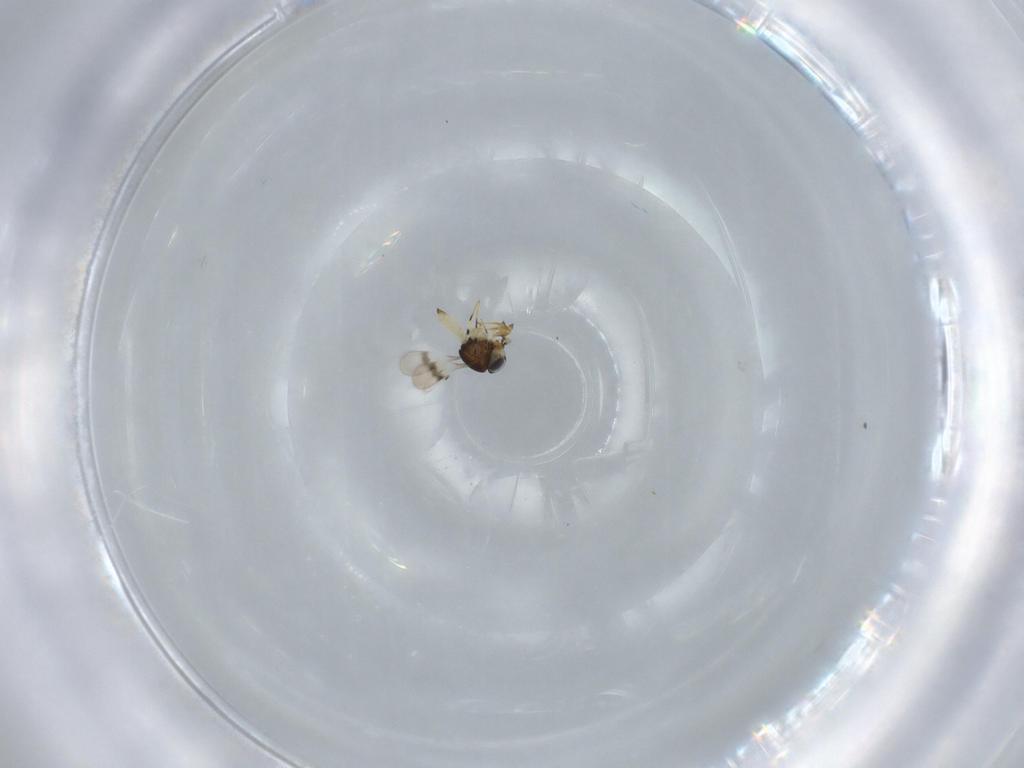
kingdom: Animalia
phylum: Arthropoda
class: Insecta
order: Hymenoptera
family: Scelionidae
